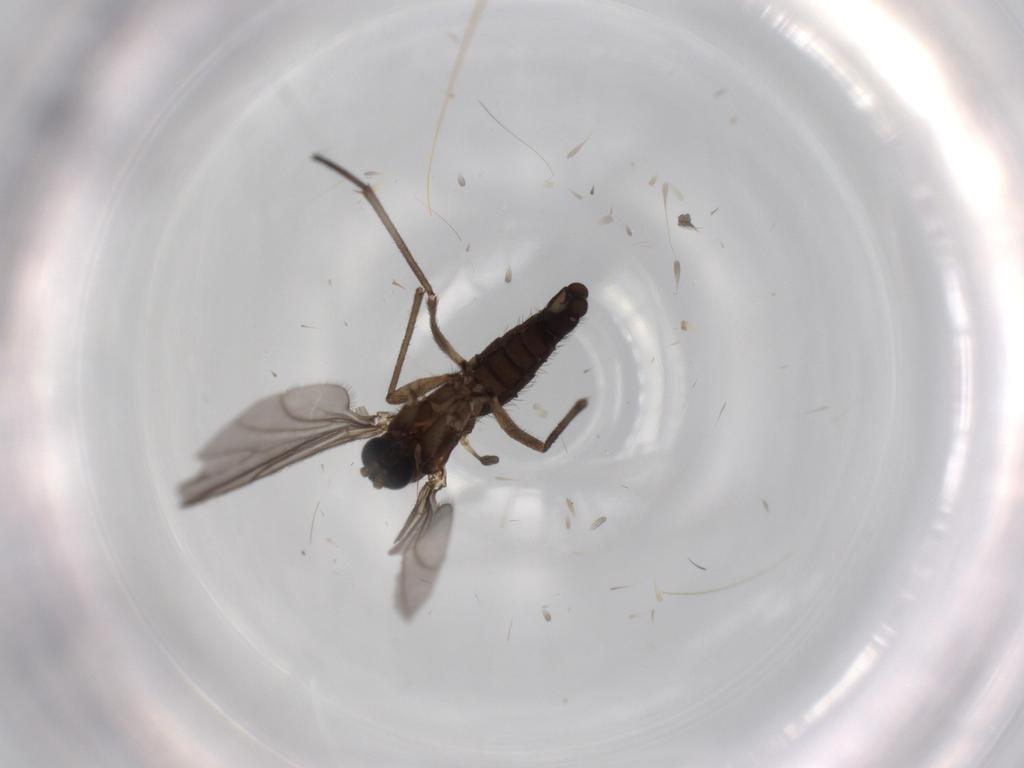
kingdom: Animalia
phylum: Arthropoda
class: Insecta
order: Diptera
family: Sciaridae
